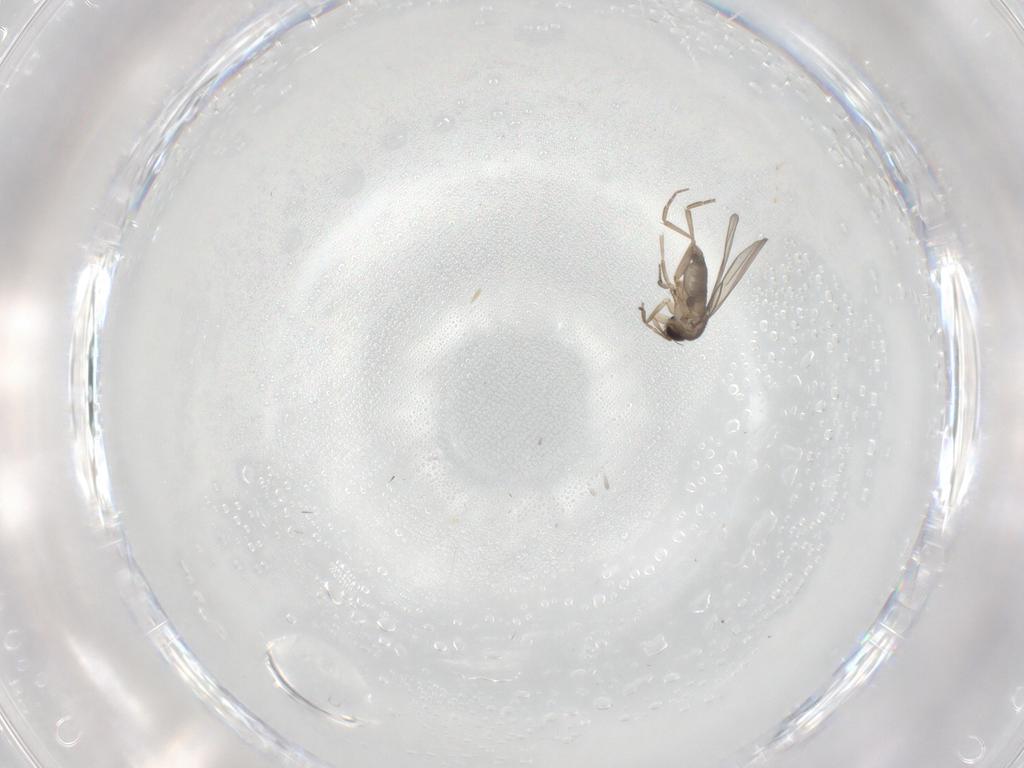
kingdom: Animalia
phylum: Arthropoda
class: Insecta
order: Diptera
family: Phoridae
